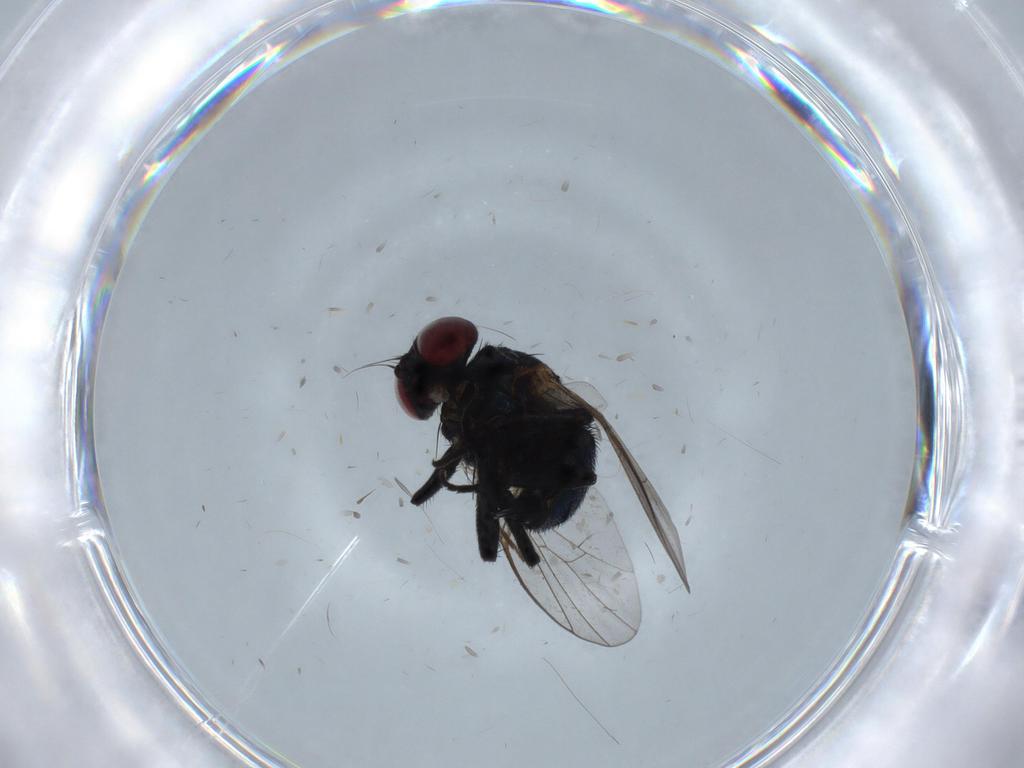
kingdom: Animalia
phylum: Arthropoda
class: Insecta
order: Diptera
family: Agromyzidae
